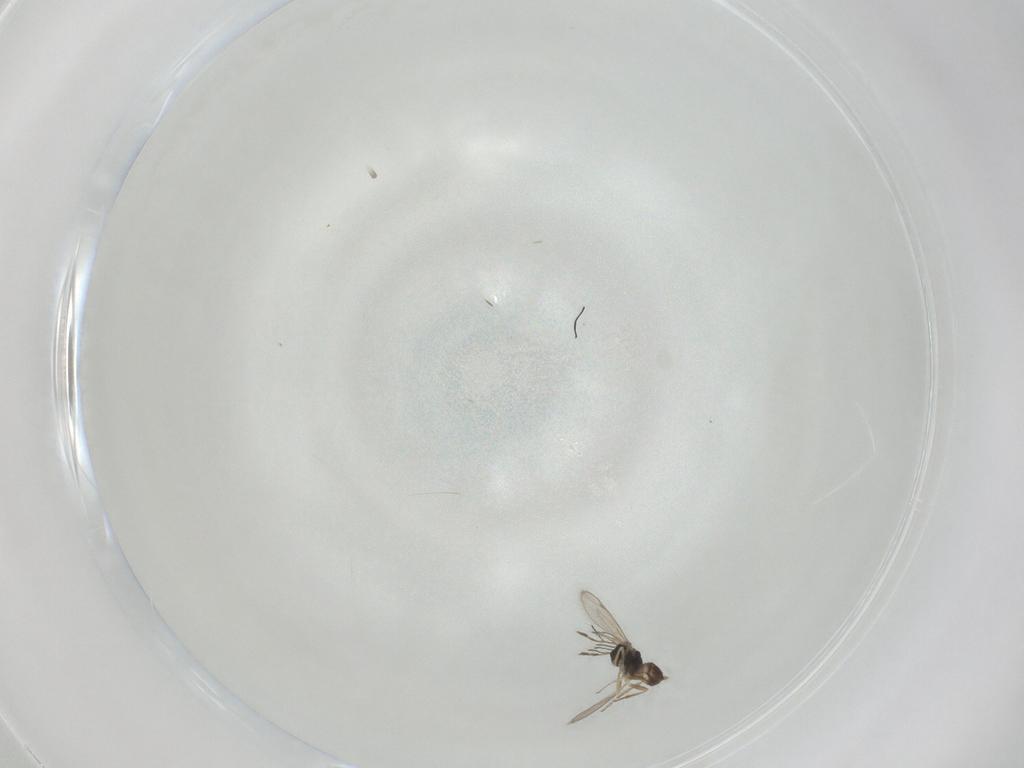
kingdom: Animalia
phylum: Arthropoda
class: Insecta
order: Hymenoptera
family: Eulophidae
